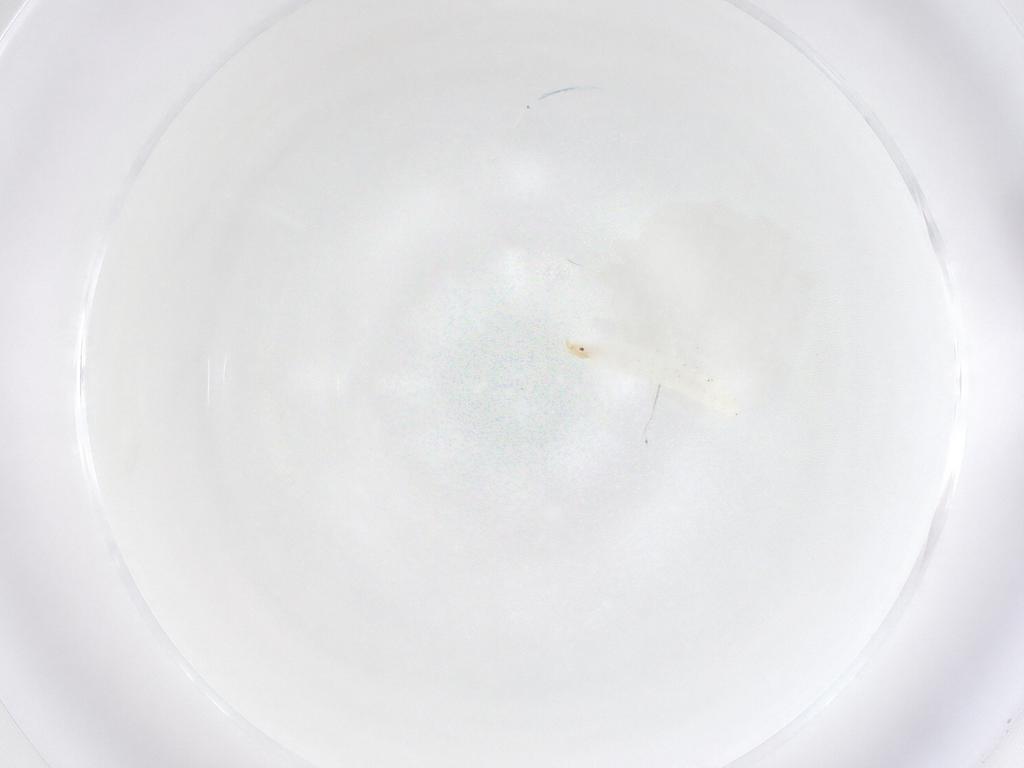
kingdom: Animalia
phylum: Arthropoda
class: Insecta
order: Diptera
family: Stratiomyidae
